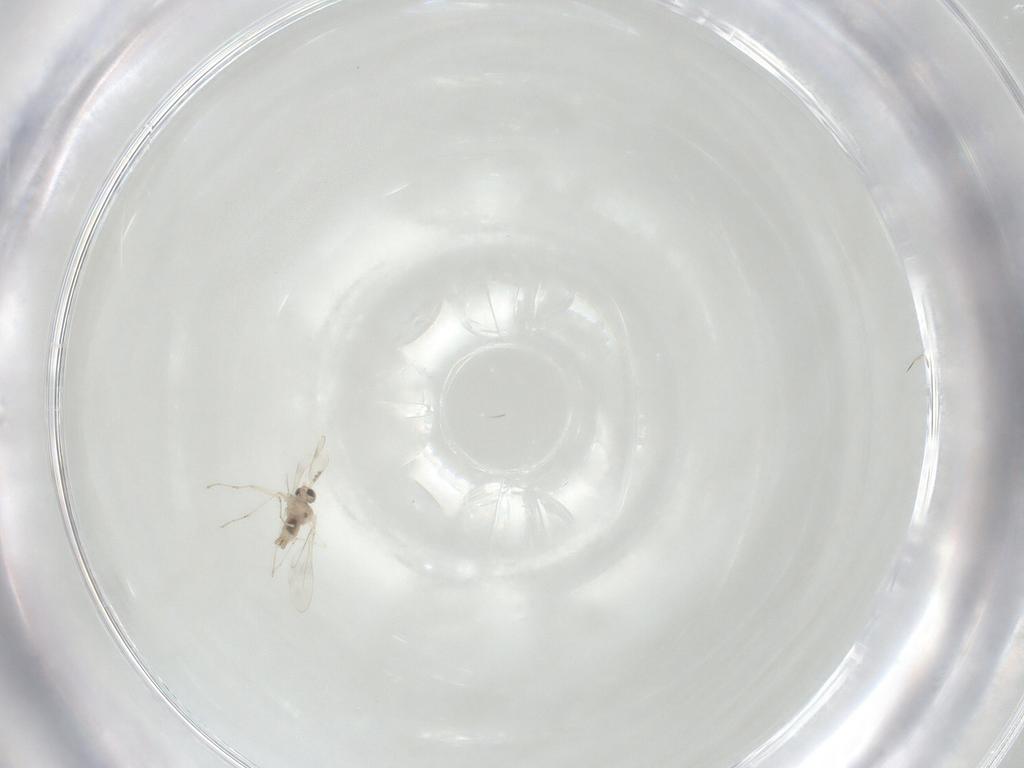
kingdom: Animalia
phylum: Arthropoda
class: Insecta
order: Diptera
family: Cecidomyiidae
